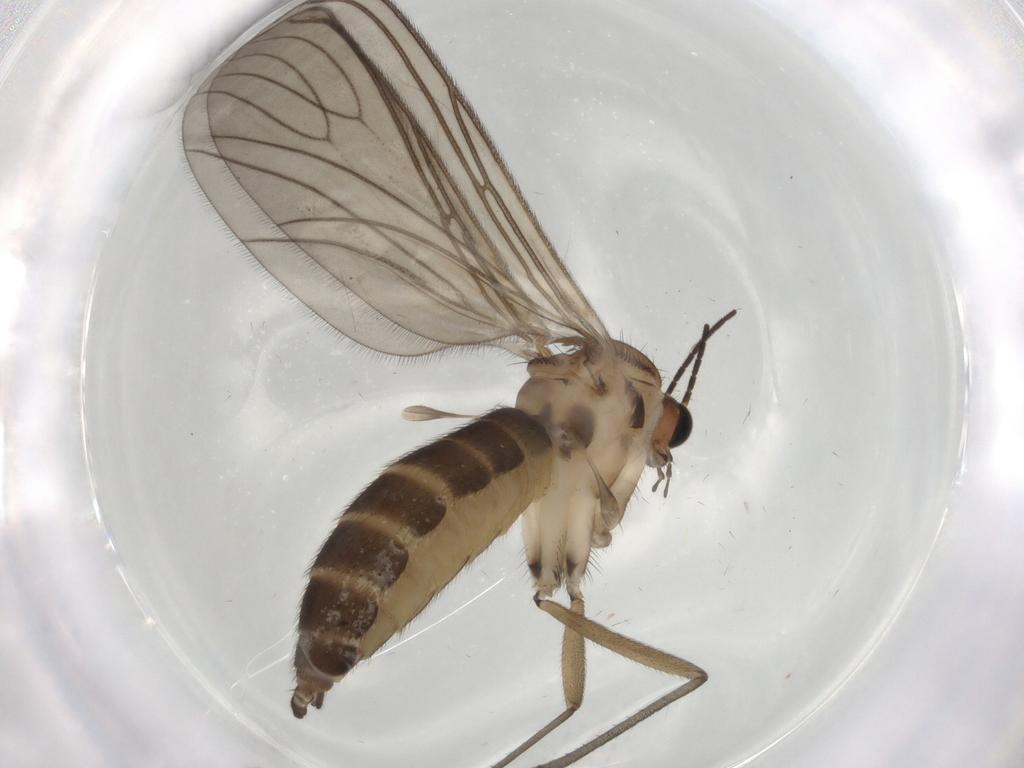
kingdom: Animalia
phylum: Arthropoda
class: Insecta
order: Diptera
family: Sciaridae
